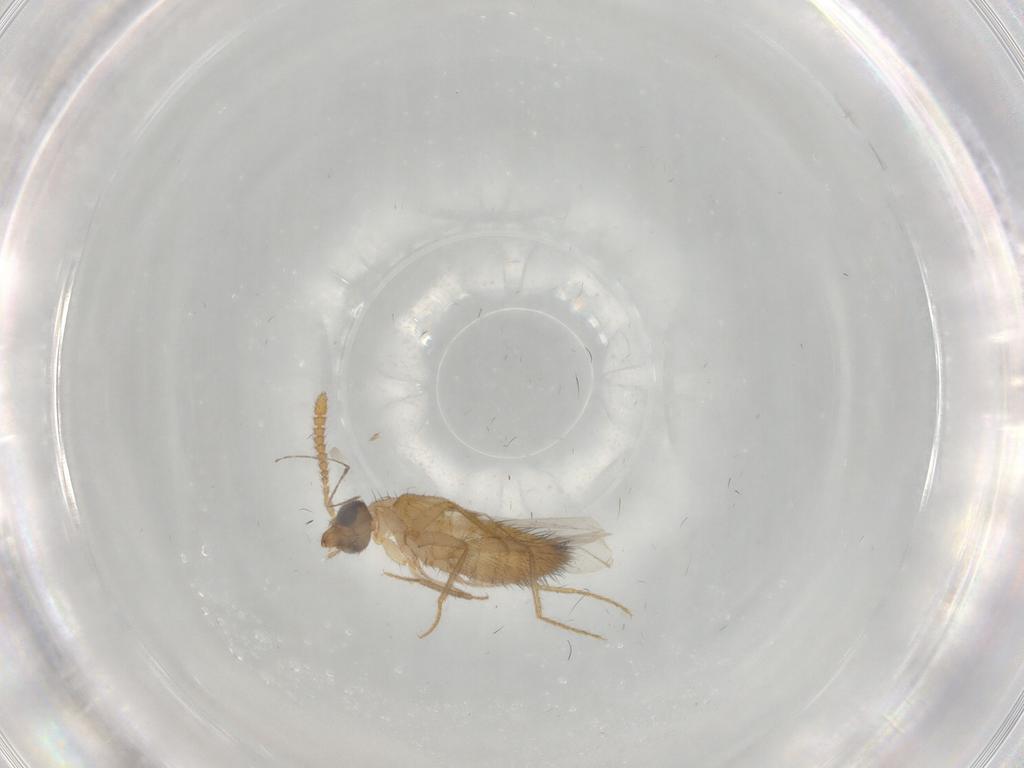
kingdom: Animalia
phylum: Arthropoda
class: Insecta
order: Coleoptera
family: Staphylinidae
